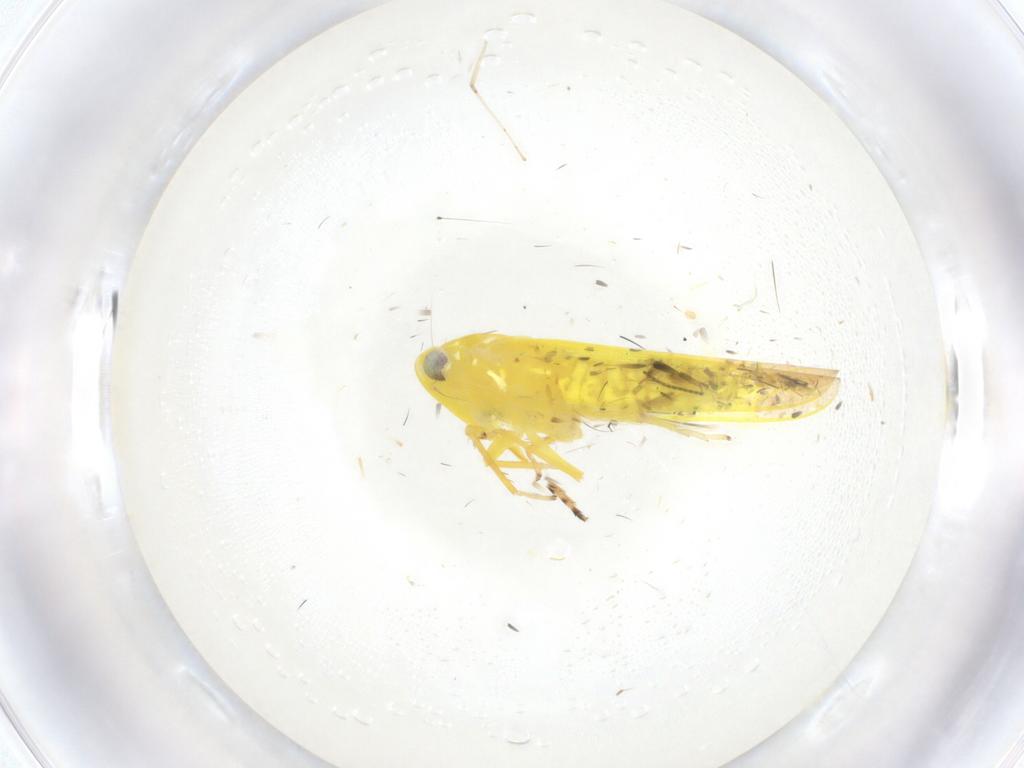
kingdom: Animalia
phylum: Arthropoda
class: Insecta
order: Hemiptera
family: Cicadellidae
